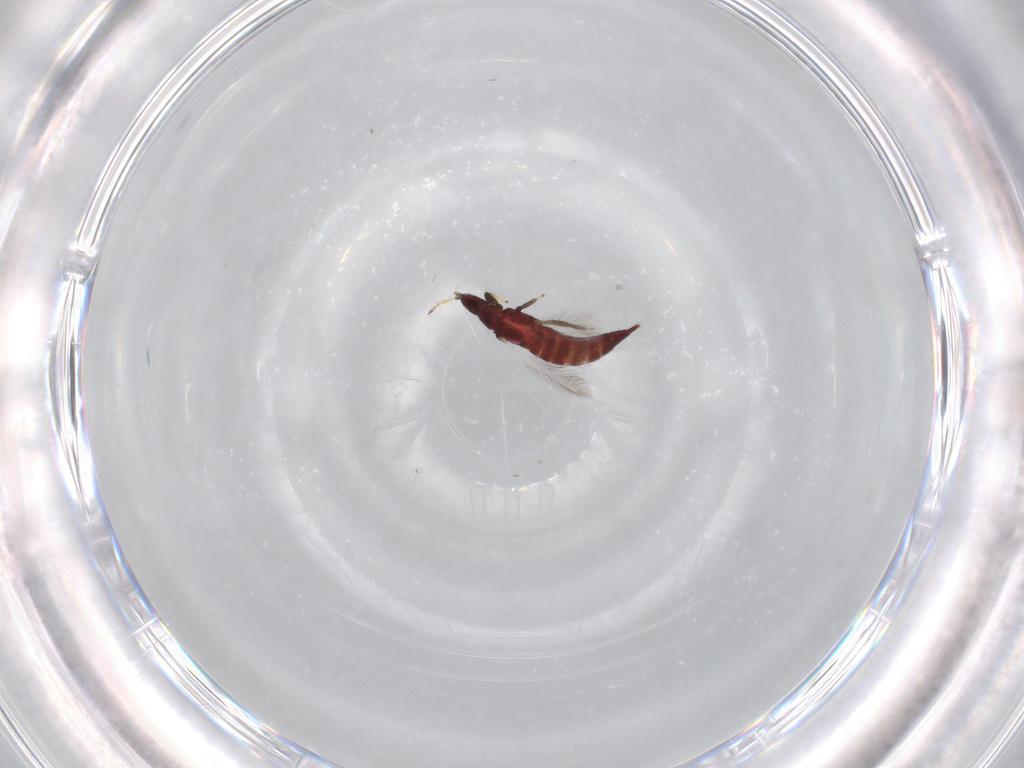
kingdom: Animalia
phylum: Arthropoda
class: Insecta
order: Thysanoptera
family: Phlaeothripidae
